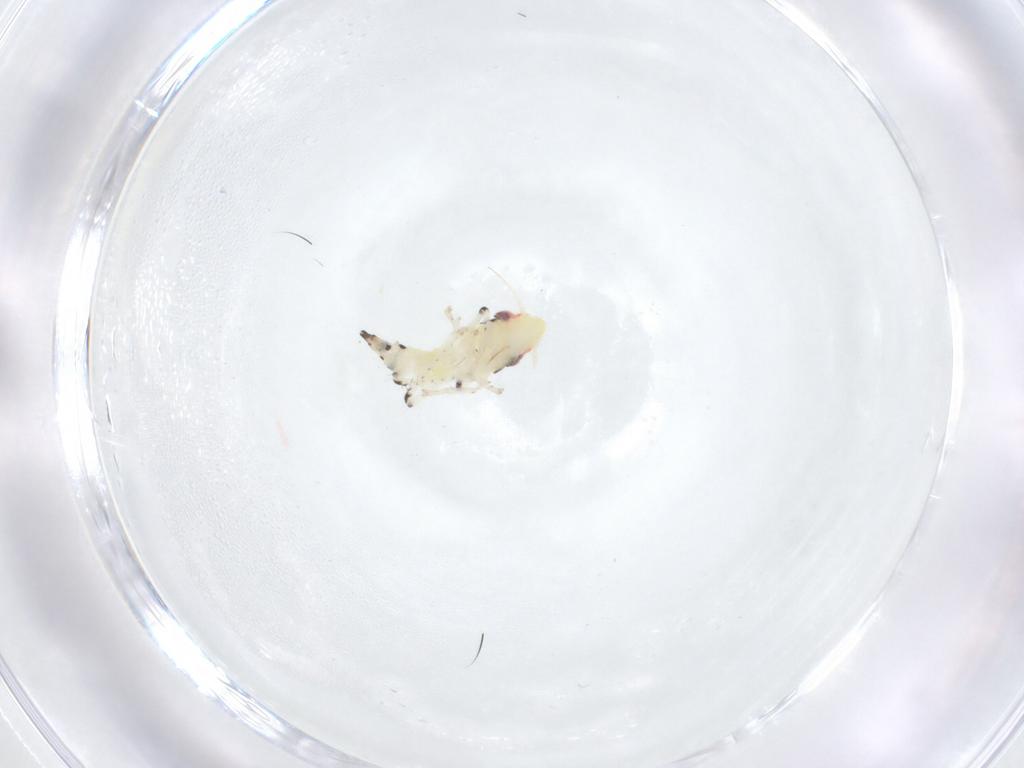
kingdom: Animalia
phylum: Arthropoda
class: Insecta
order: Hemiptera
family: Cicadellidae
